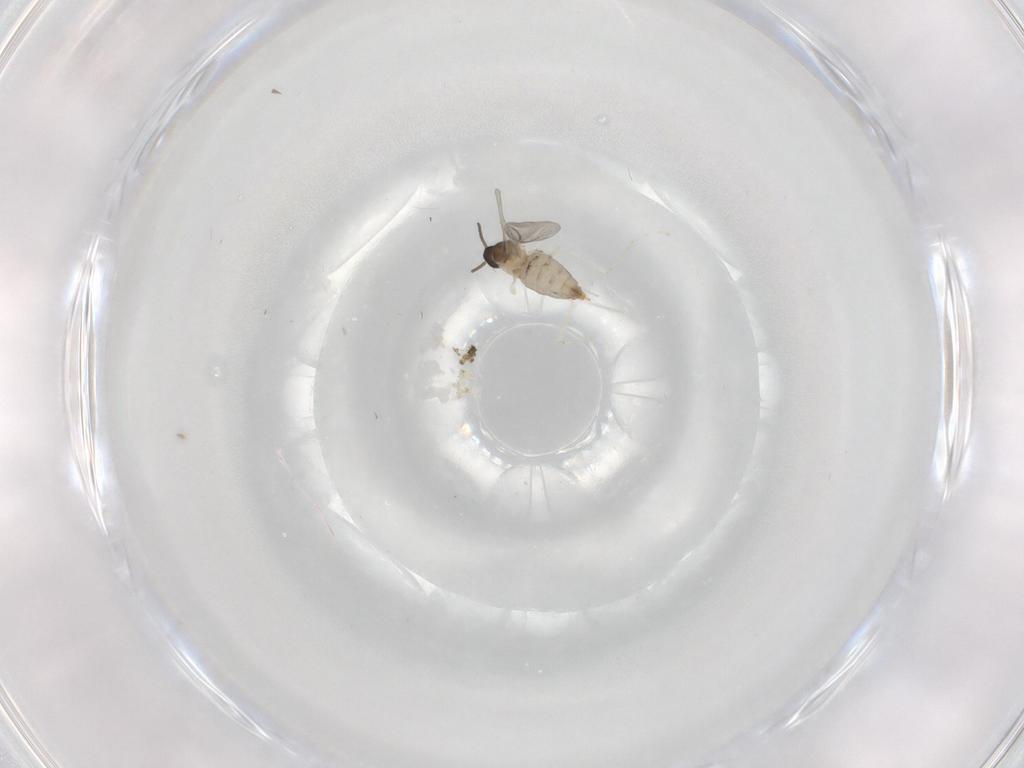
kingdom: Animalia
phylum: Arthropoda
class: Insecta
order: Diptera
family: Cecidomyiidae
